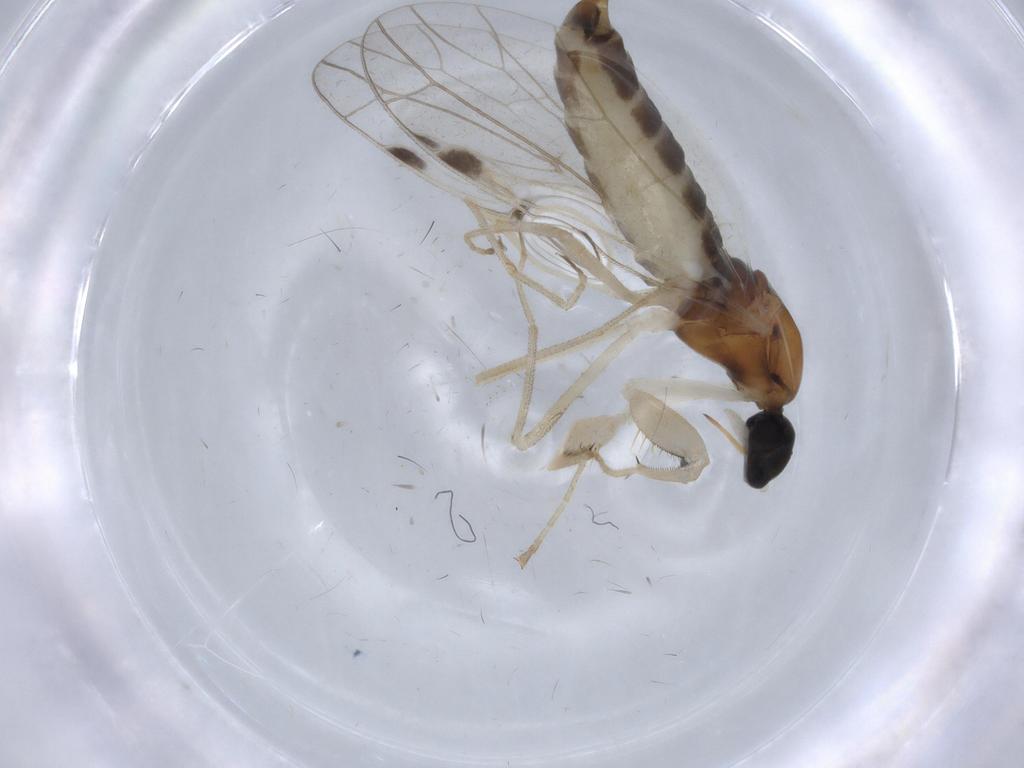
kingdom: Animalia
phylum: Arthropoda
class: Insecta
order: Diptera
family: Empididae
